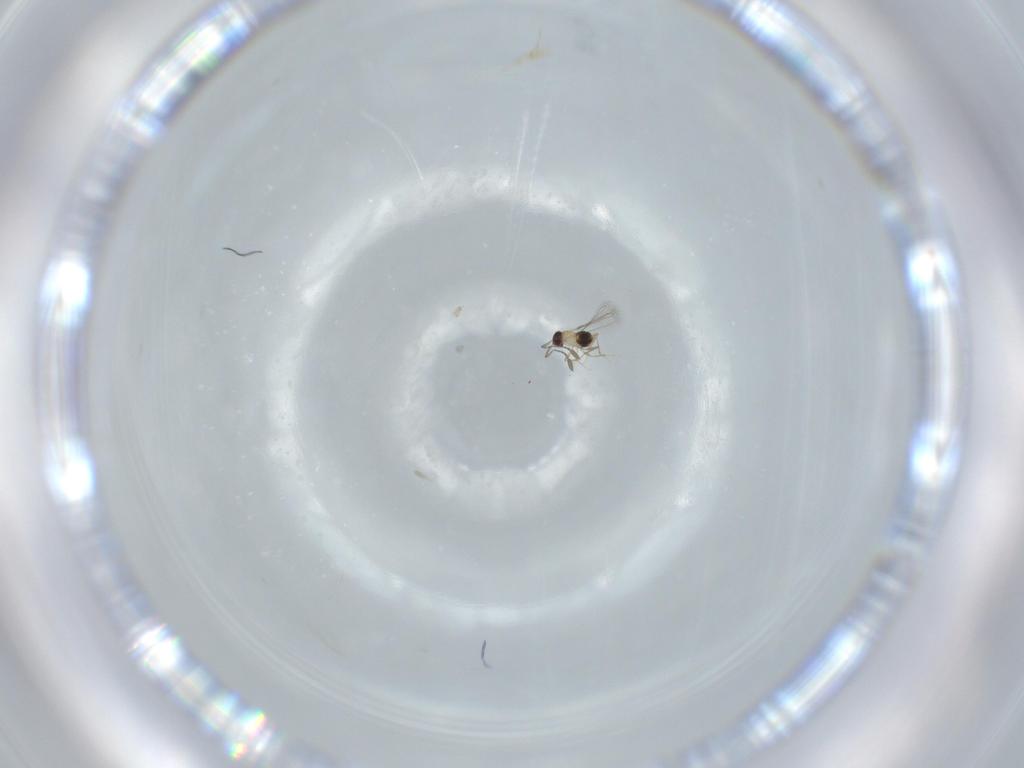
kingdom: Animalia
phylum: Arthropoda
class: Insecta
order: Hymenoptera
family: Mymaridae
